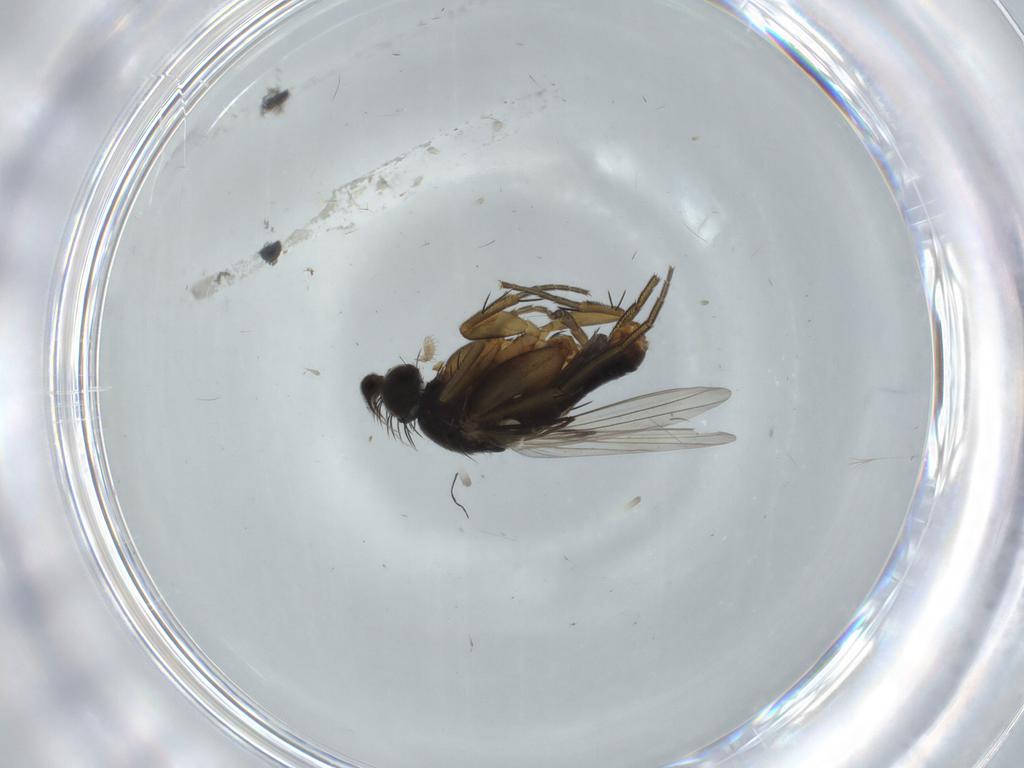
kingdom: Animalia
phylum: Arthropoda
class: Insecta
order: Diptera
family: Phoridae
